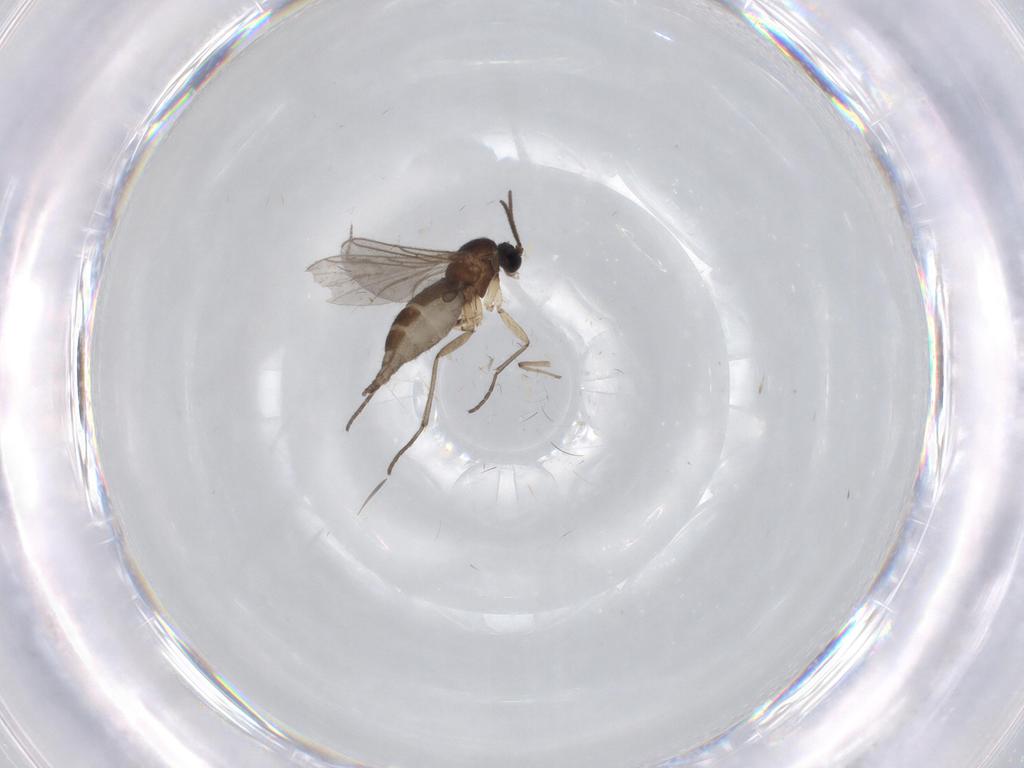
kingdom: Animalia
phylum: Arthropoda
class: Insecta
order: Diptera
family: Sciaridae
